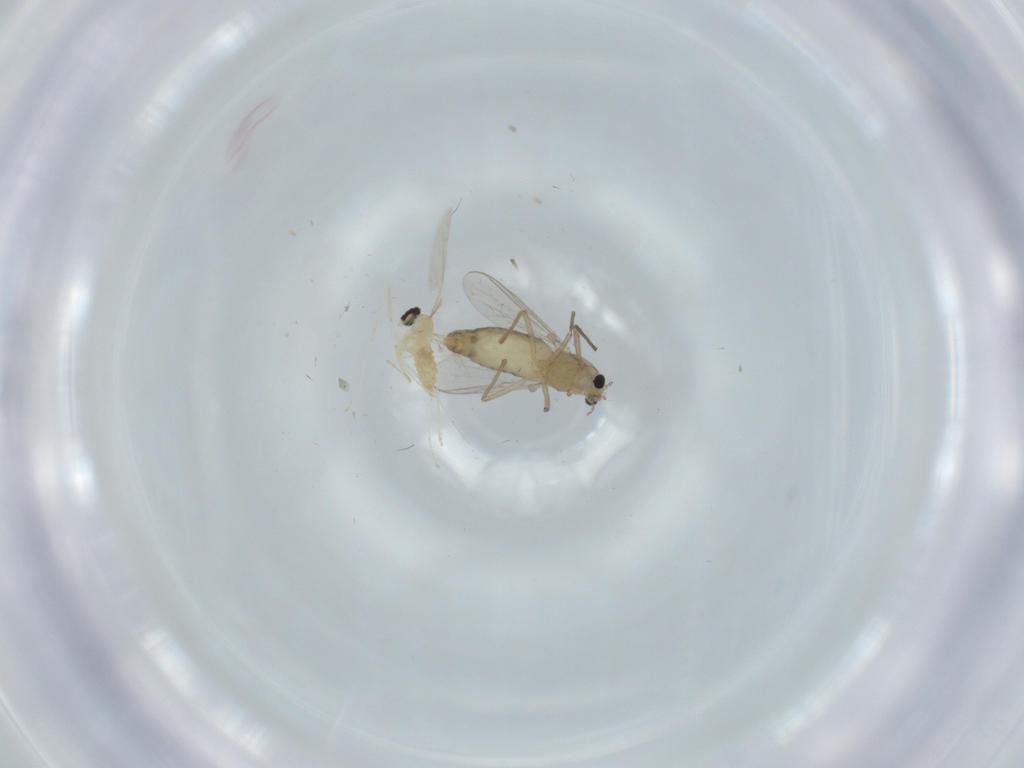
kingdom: Animalia
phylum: Arthropoda
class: Insecta
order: Diptera
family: Chironomidae
